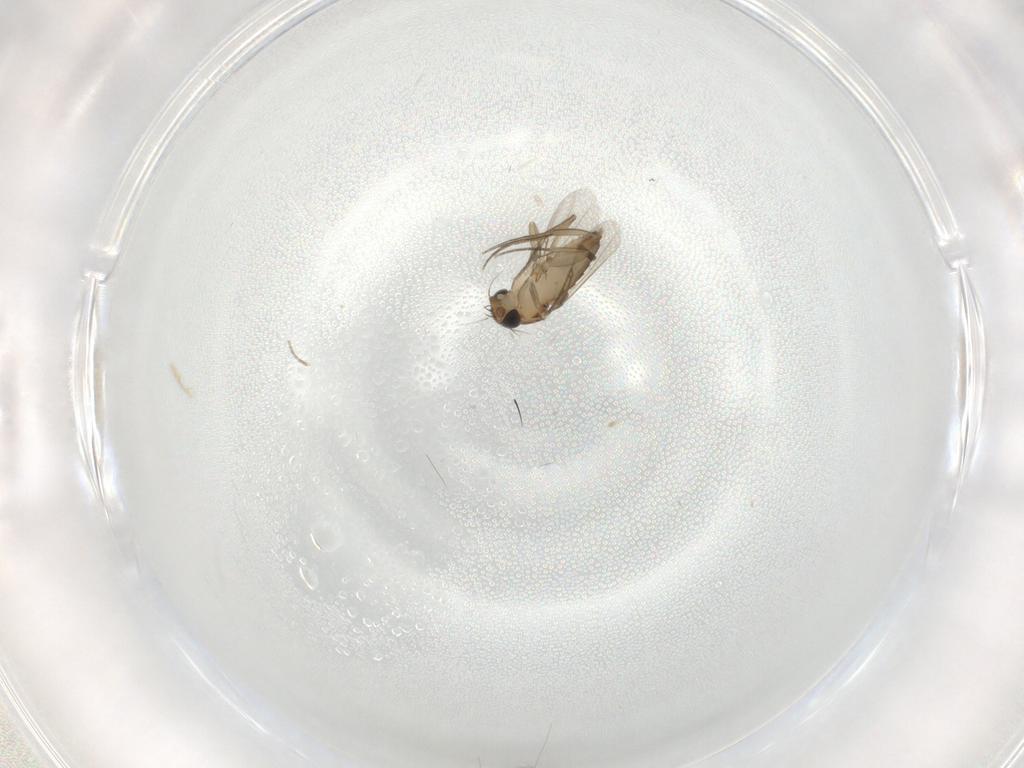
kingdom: Animalia
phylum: Arthropoda
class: Insecta
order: Diptera
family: Phoridae
